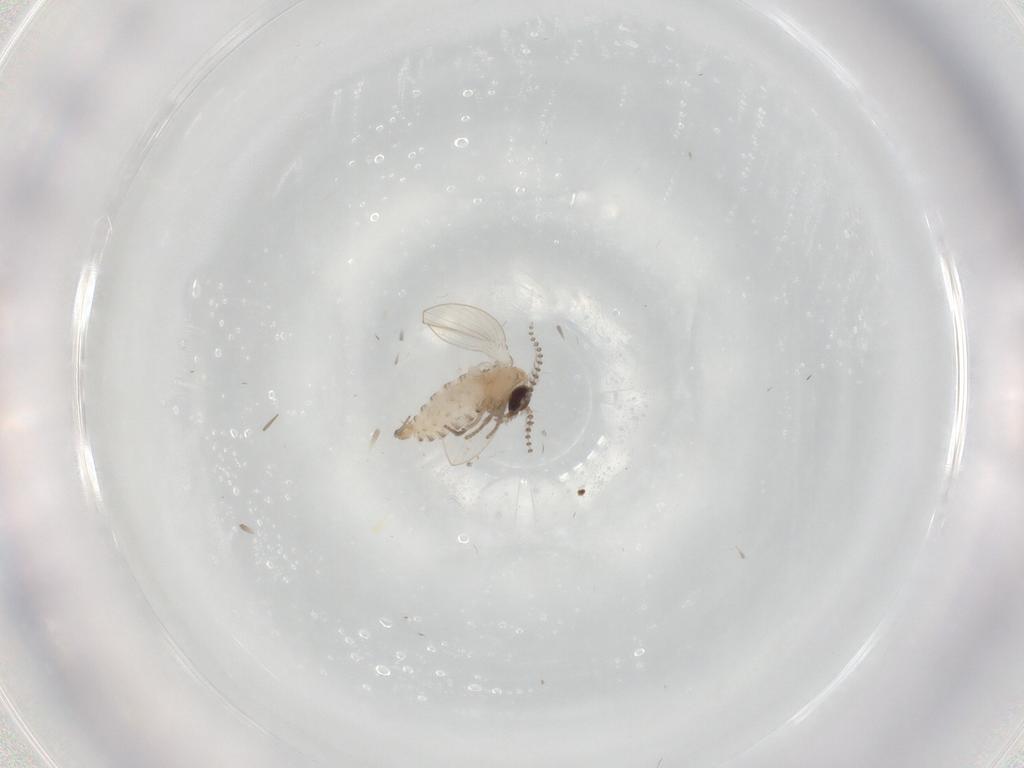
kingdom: Animalia
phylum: Arthropoda
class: Insecta
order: Diptera
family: Psychodidae
